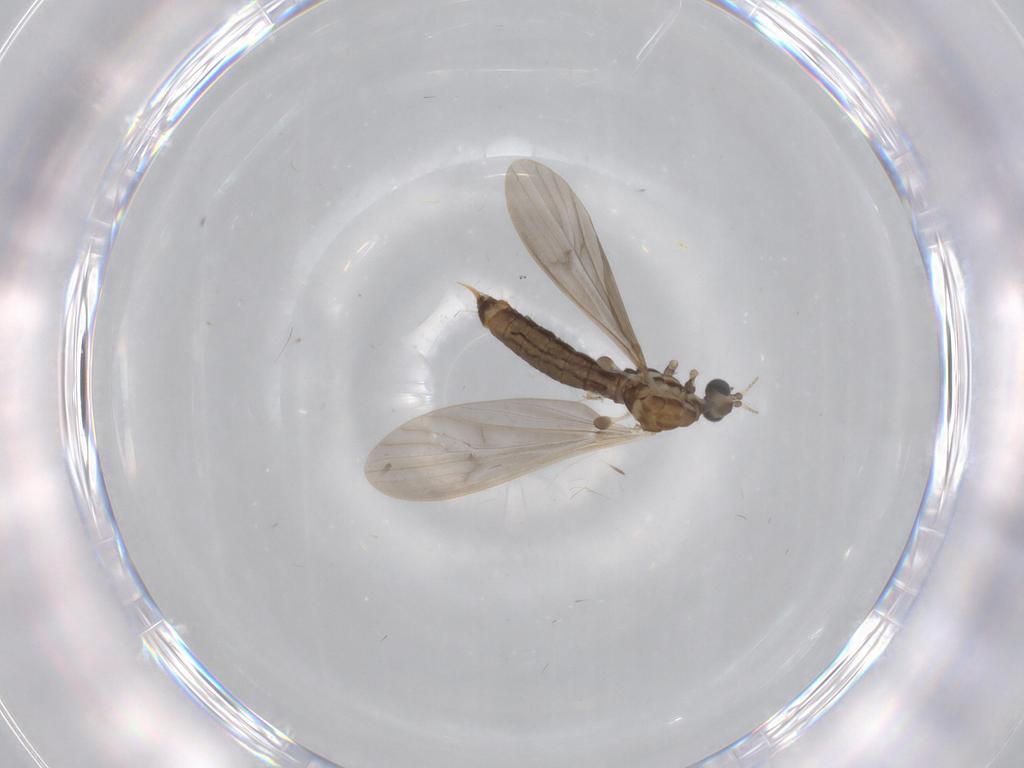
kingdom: Animalia
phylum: Arthropoda
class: Insecta
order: Diptera
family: Limoniidae
